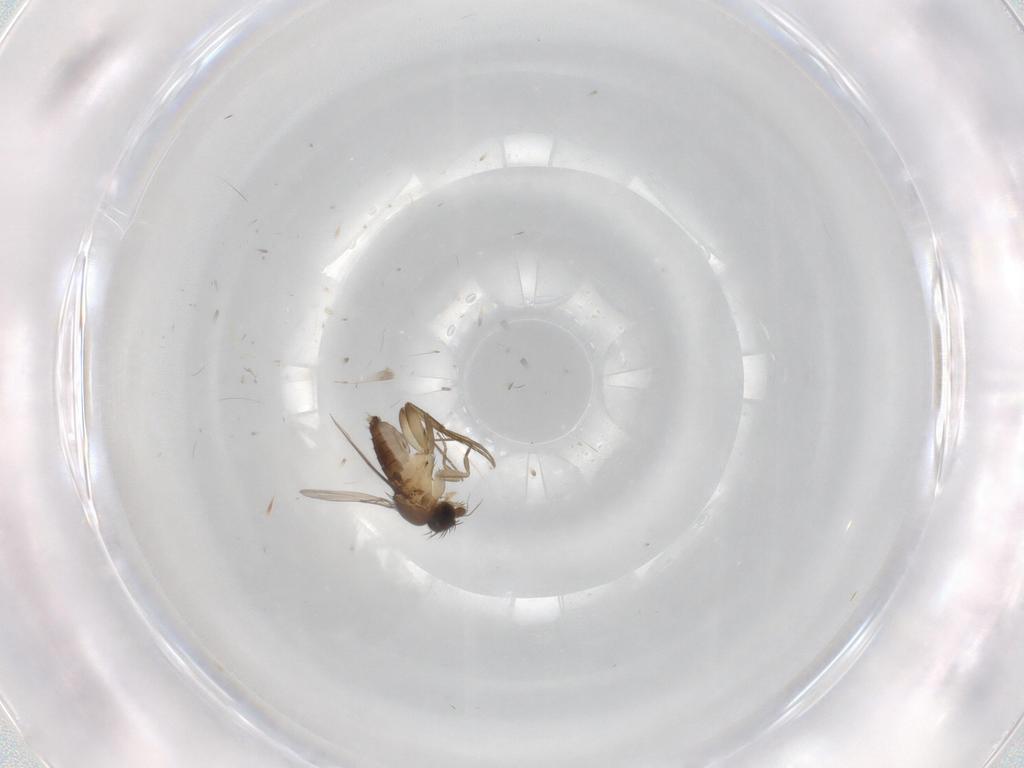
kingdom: Animalia
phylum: Arthropoda
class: Insecta
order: Diptera
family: Phoridae
